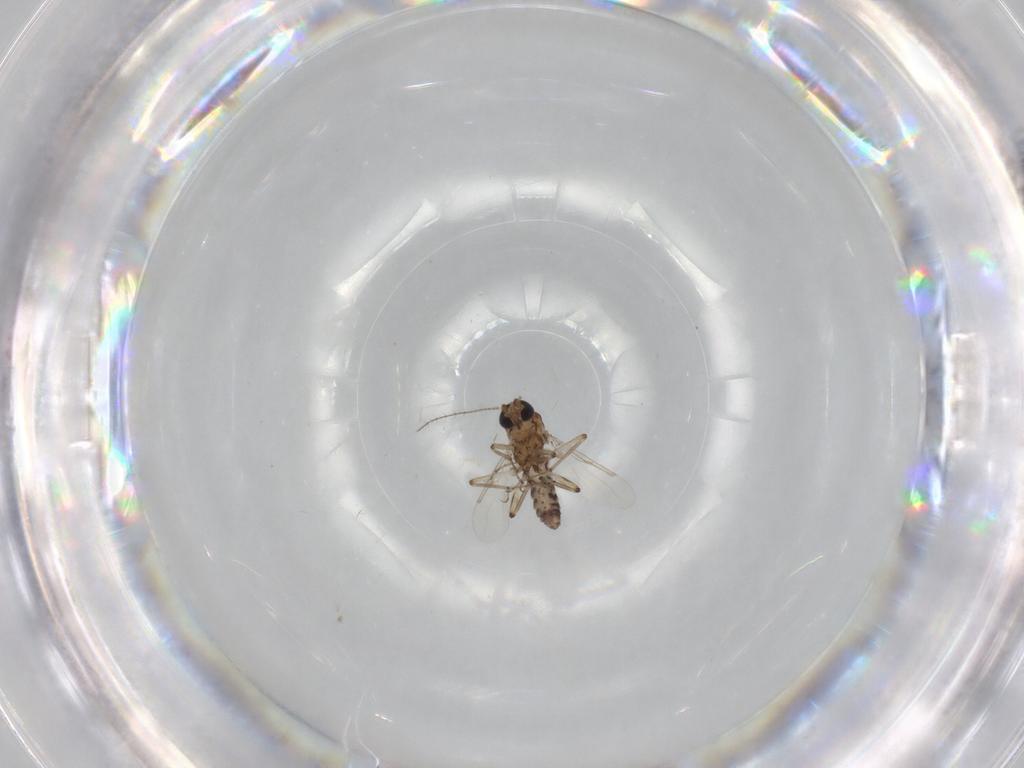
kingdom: Animalia
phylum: Arthropoda
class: Insecta
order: Diptera
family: Ceratopogonidae
